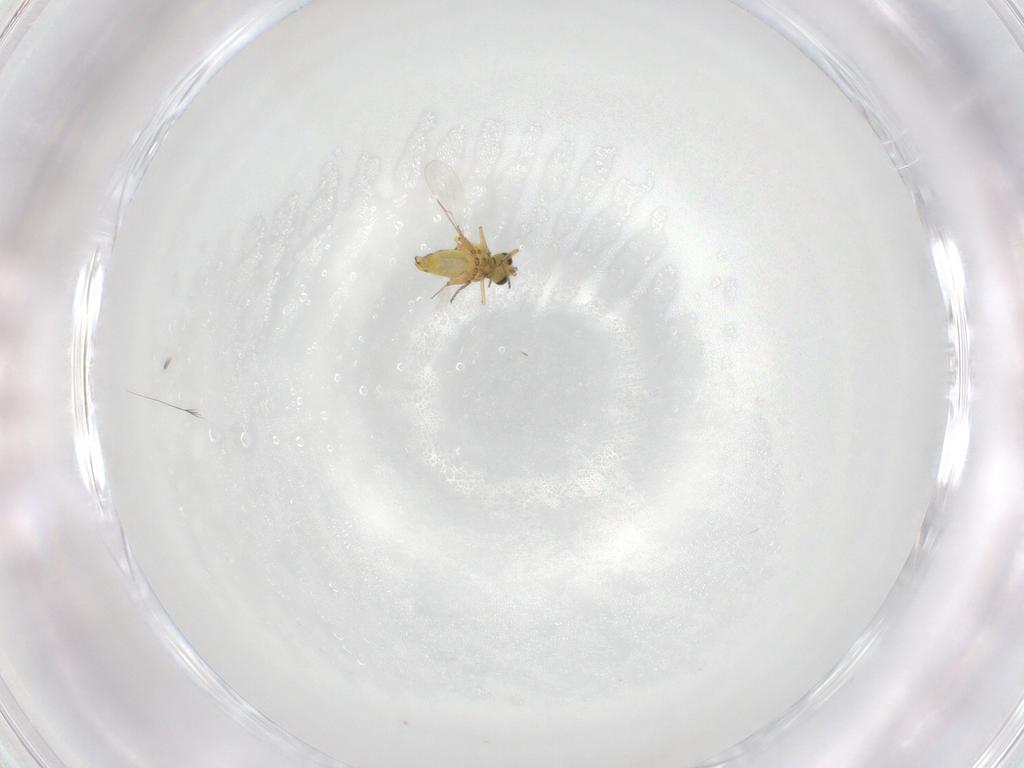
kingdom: Animalia
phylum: Arthropoda
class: Insecta
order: Diptera
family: Ceratopogonidae
